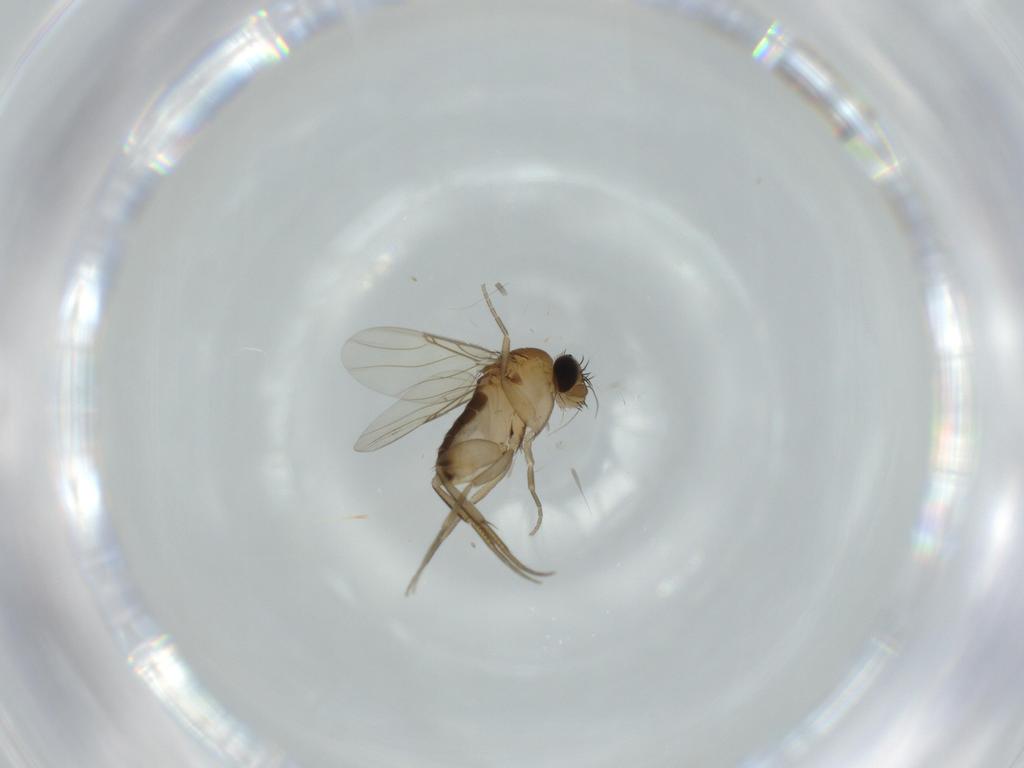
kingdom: Animalia
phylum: Arthropoda
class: Insecta
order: Diptera
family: Phoridae
